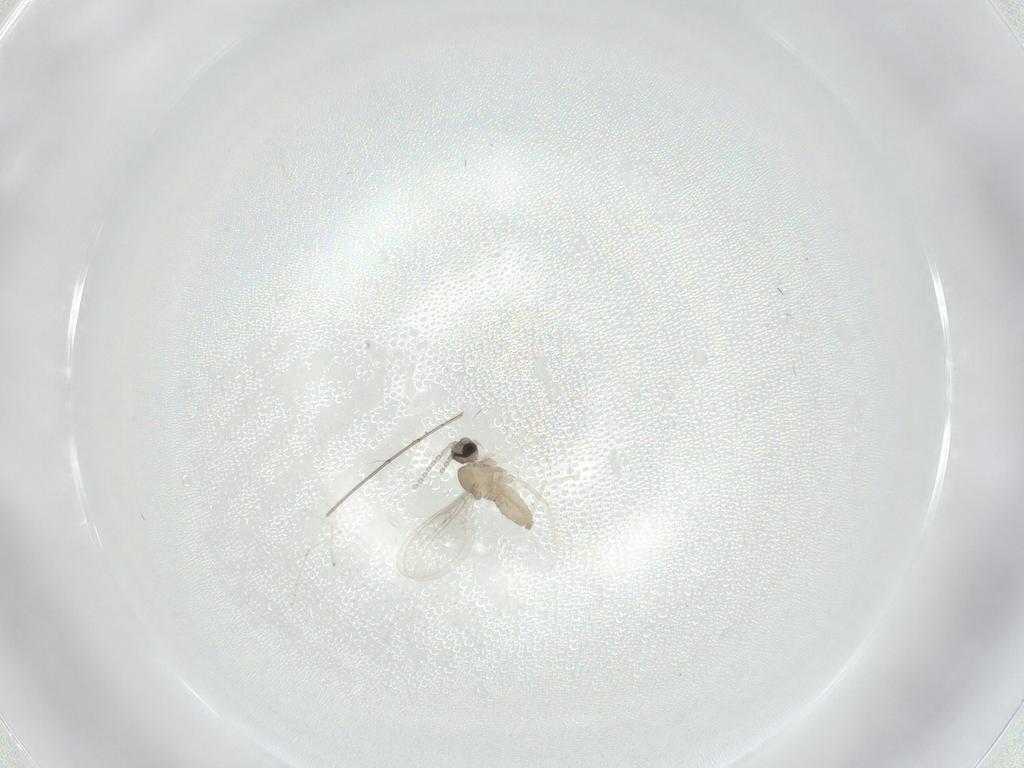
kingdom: Animalia
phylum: Arthropoda
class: Insecta
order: Diptera
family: Cecidomyiidae
